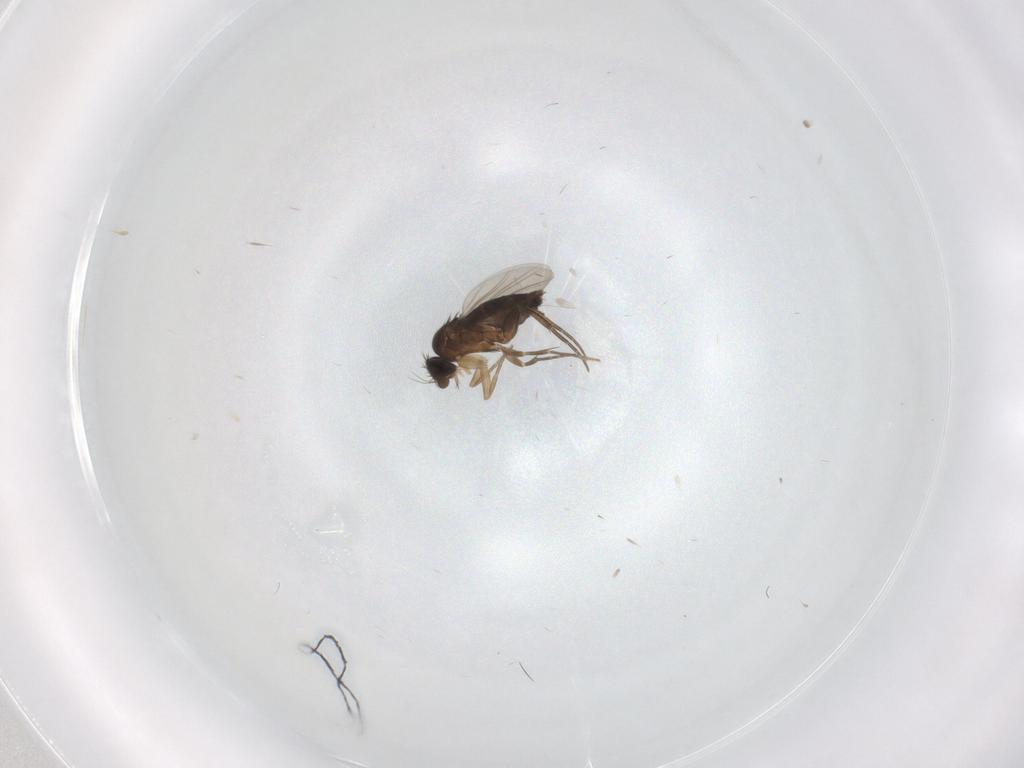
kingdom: Animalia
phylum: Arthropoda
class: Insecta
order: Diptera
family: Phoridae
